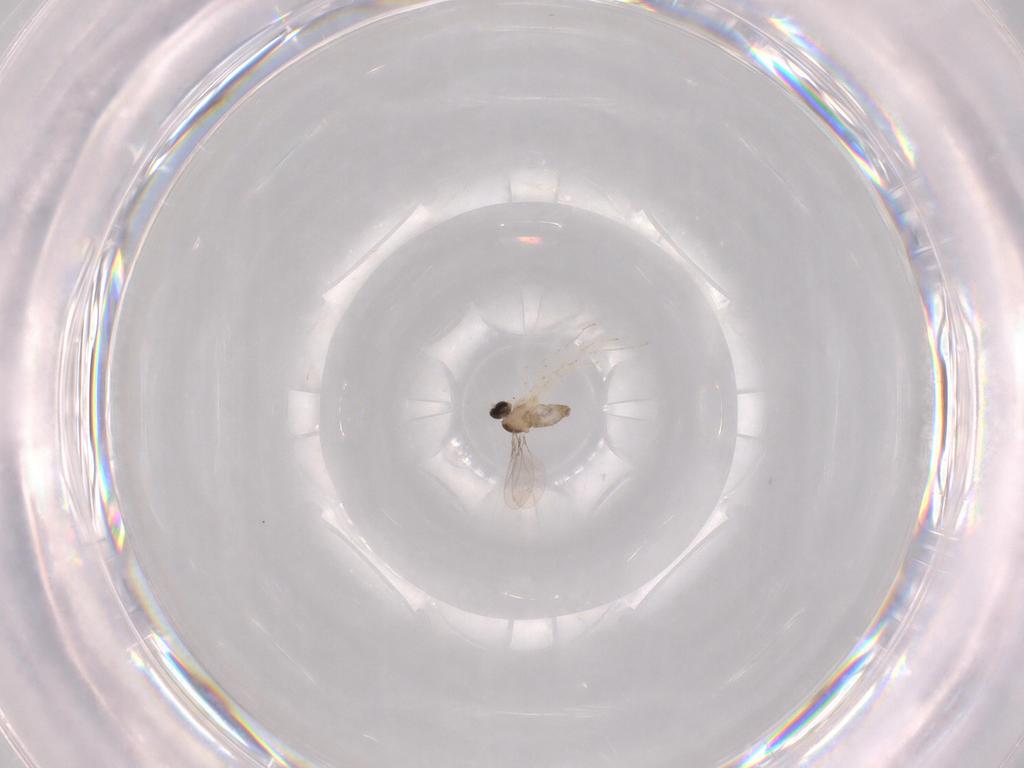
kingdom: Animalia
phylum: Arthropoda
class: Insecta
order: Diptera
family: Cecidomyiidae
